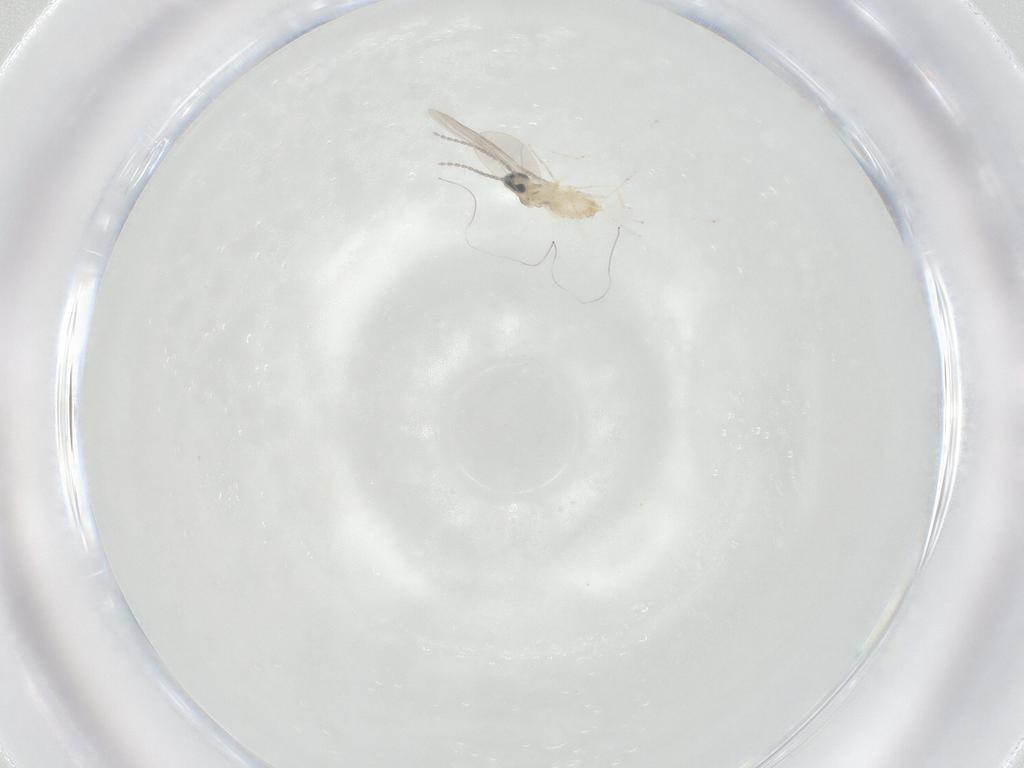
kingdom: Animalia
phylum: Arthropoda
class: Insecta
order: Diptera
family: Cecidomyiidae
